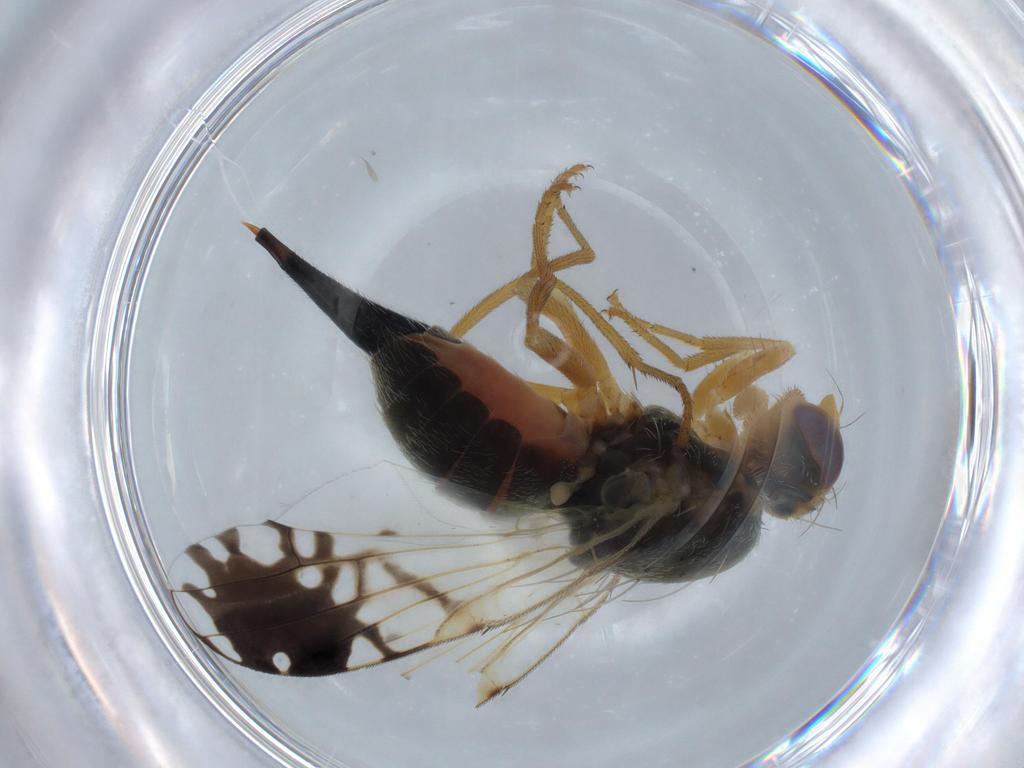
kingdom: Animalia
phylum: Arthropoda
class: Insecta
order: Diptera
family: Tephritidae
